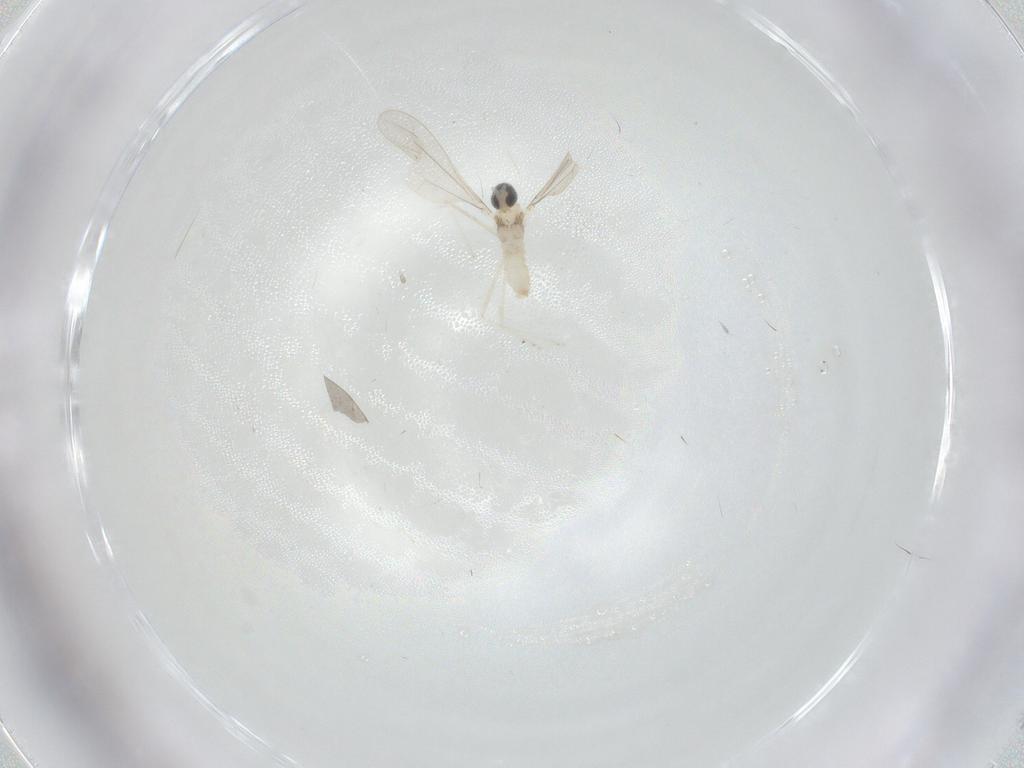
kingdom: Animalia
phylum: Arthropoda
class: Insecta
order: Diptera
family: Cecidomyiidae
